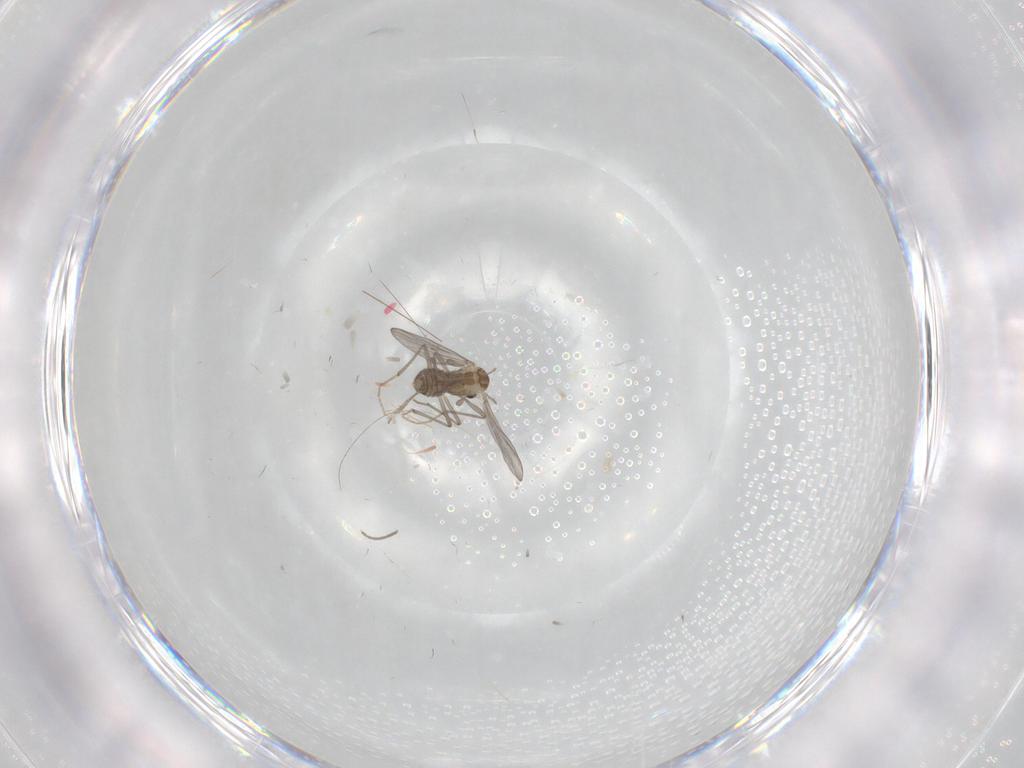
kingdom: Animalia
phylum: Arthropoda
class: Insecta
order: Diptera
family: Chironomidae
